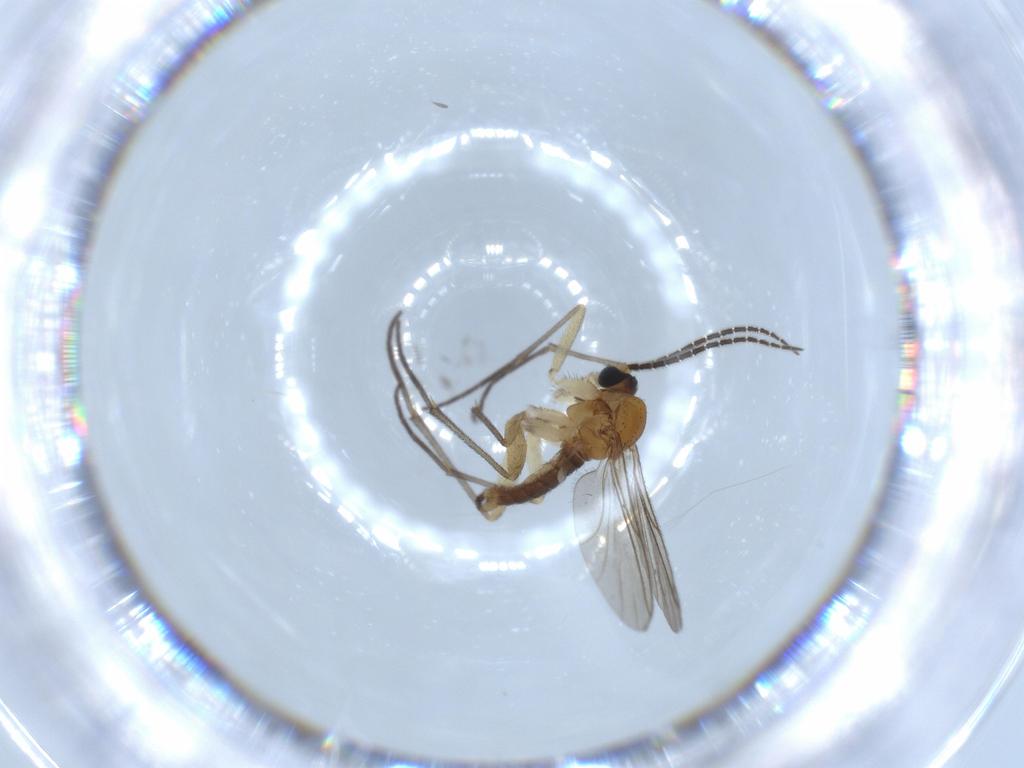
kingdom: Animalia
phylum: Arthropoda
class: Insecta
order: Diptera
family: Sciaridae
